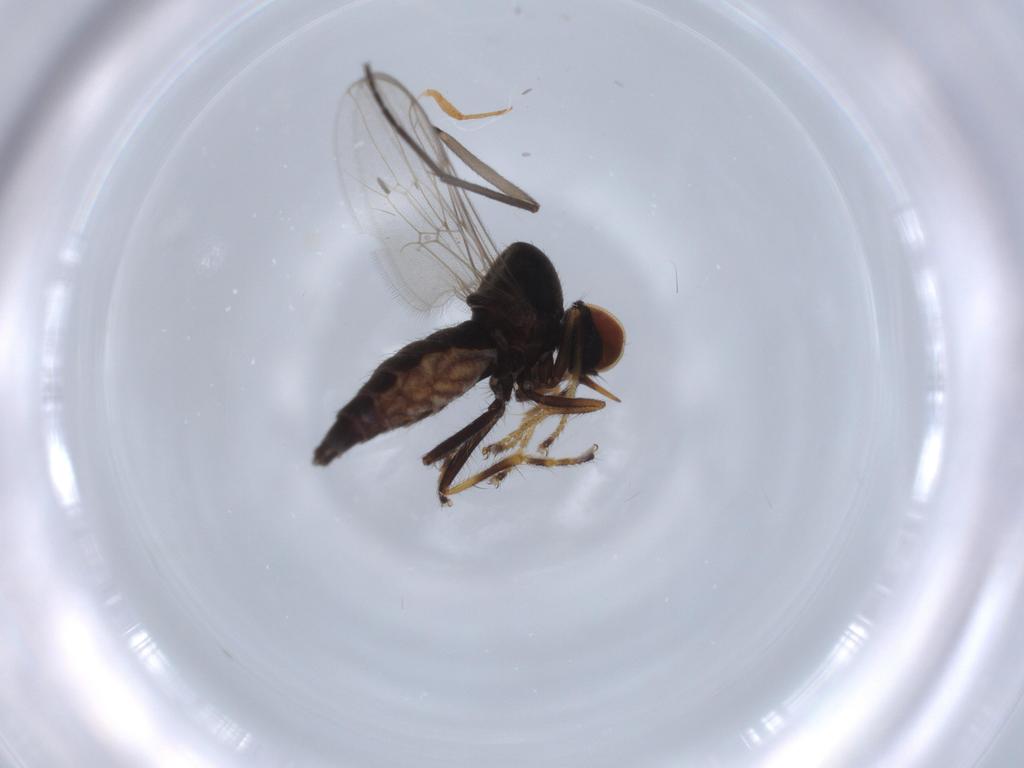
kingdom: Animalia
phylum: Arthropoda
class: Insecta
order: Diptera
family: Hybotidae
